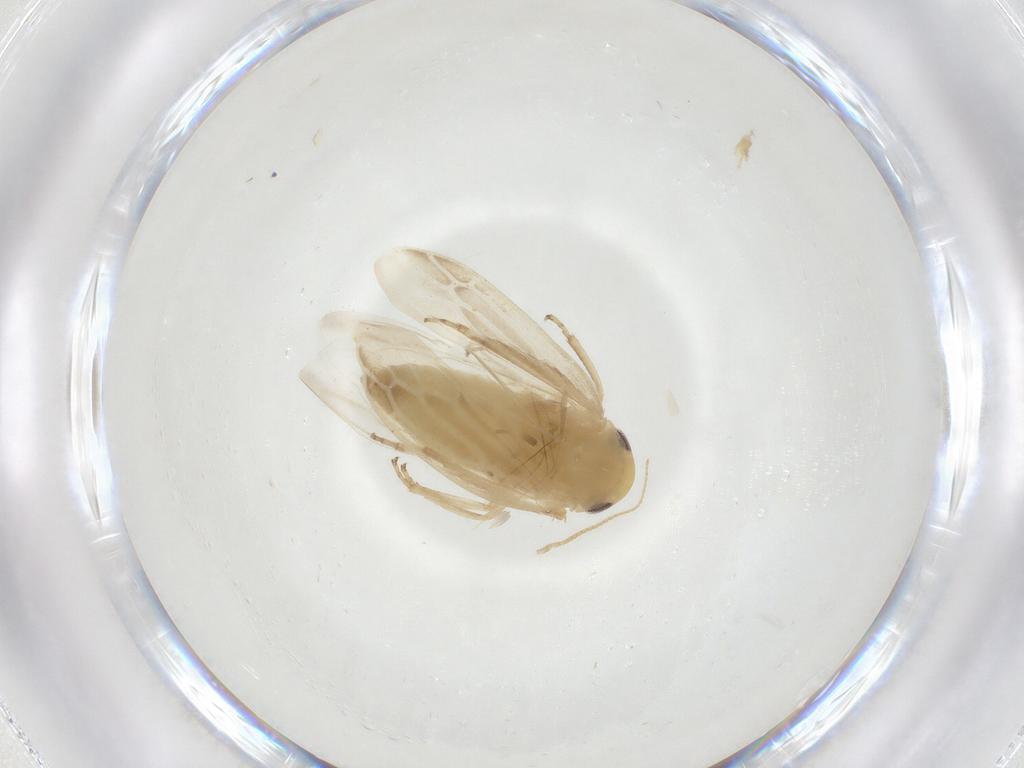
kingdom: Animalia
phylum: Arthropoda
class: Insecta
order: Hemiptera
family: Cicadellidae
